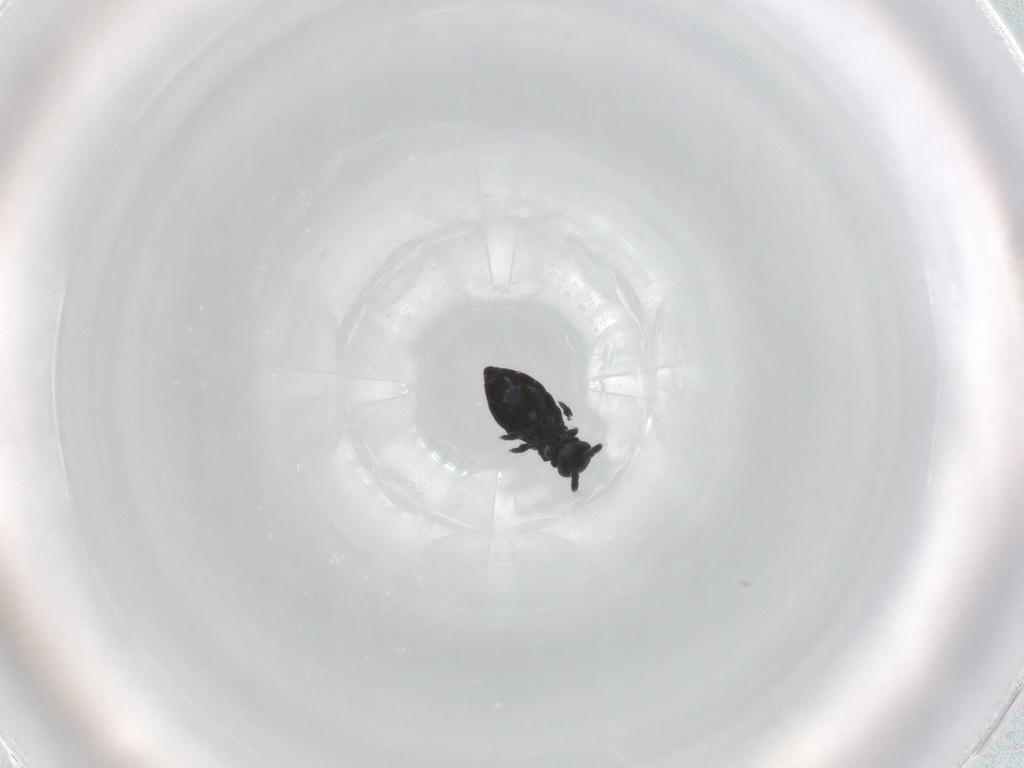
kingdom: Animalia
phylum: Arthropoda
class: Collembola
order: Poduromorpha
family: Hypogastruridae
